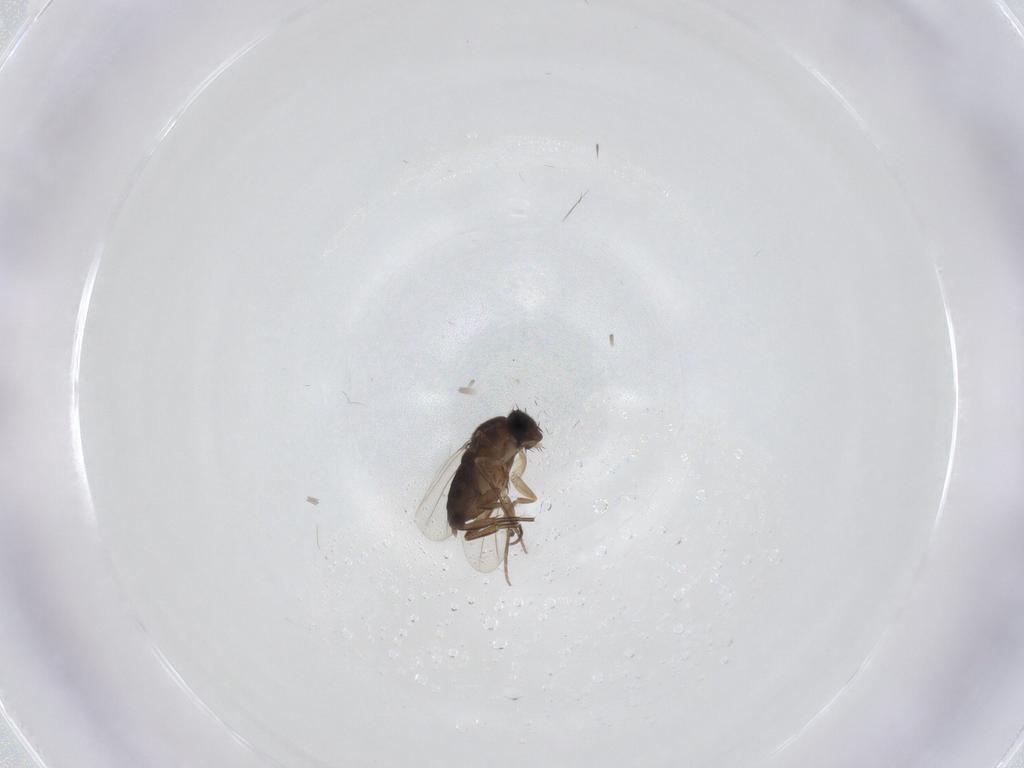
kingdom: Animalia
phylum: Arthropoda
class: Insecta
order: Diptera
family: Phoridae
